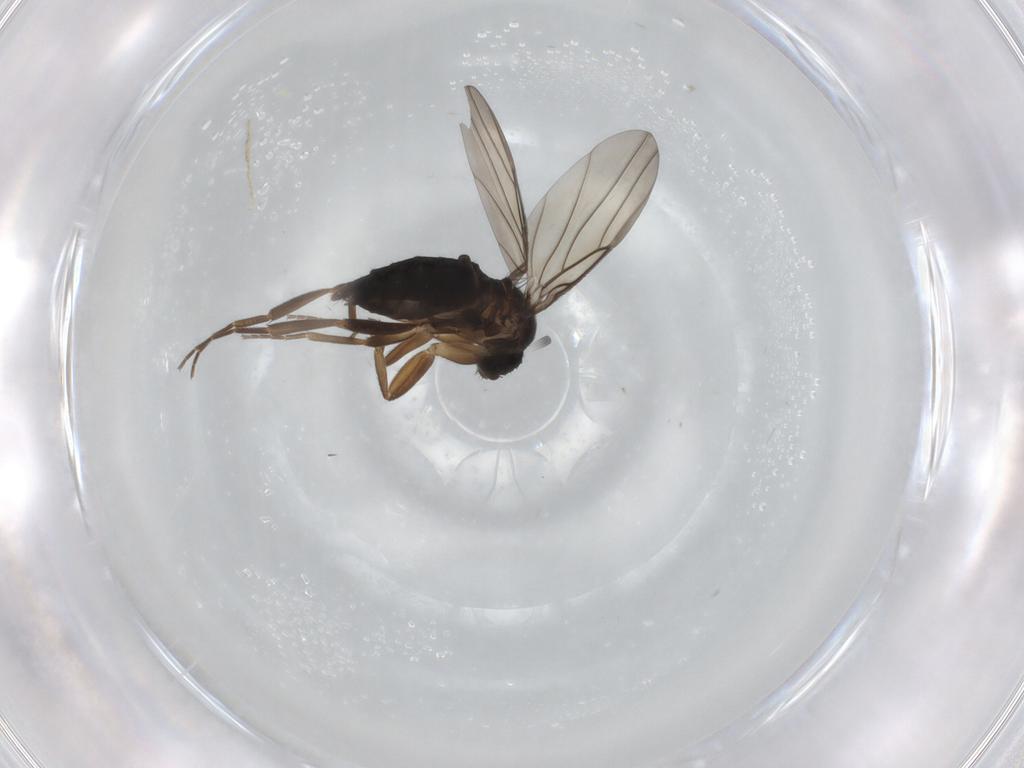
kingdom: Animalia
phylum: Arthropoda
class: Insecta
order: Diptera
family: Chironomidae
